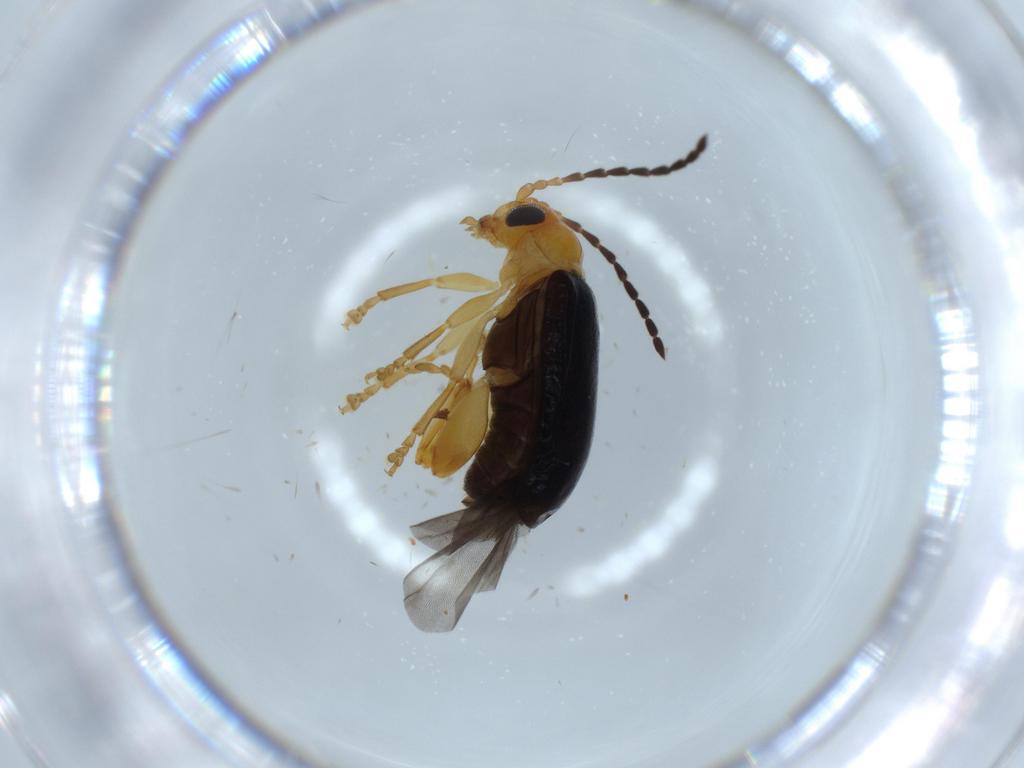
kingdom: Animalia
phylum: Arthropoda
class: Insecta
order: Coleoptera
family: Chrysomelidae
